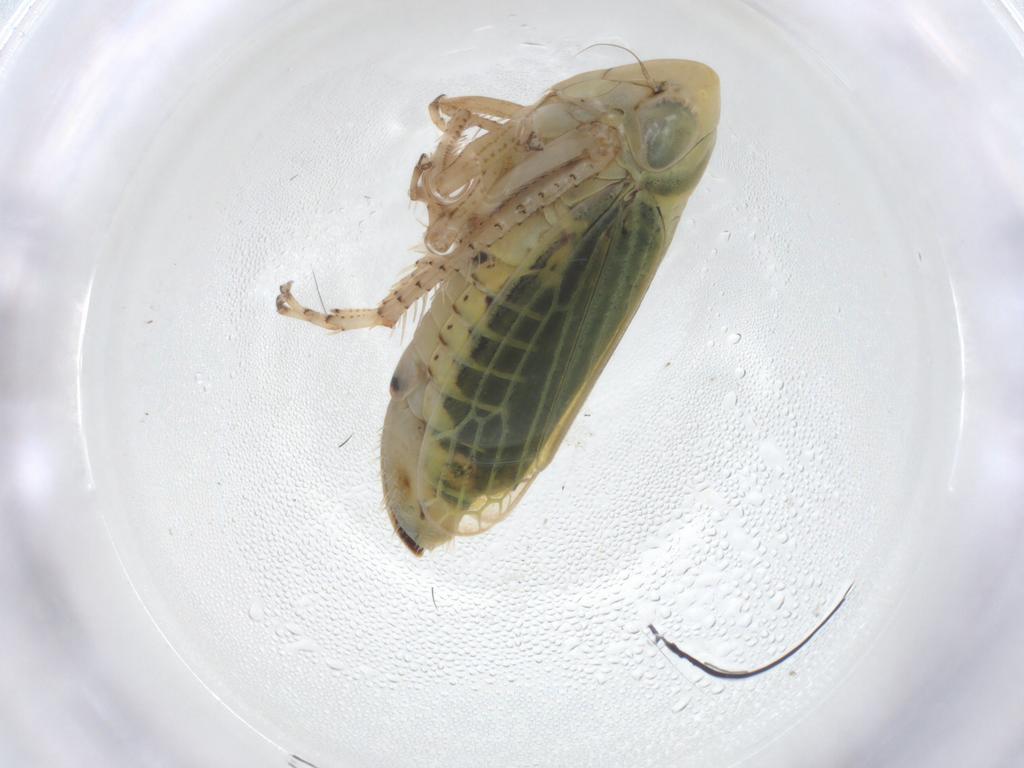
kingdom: Animalia
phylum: Arthropoda
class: Insecta
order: Hemiptera
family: Cicadellidae
